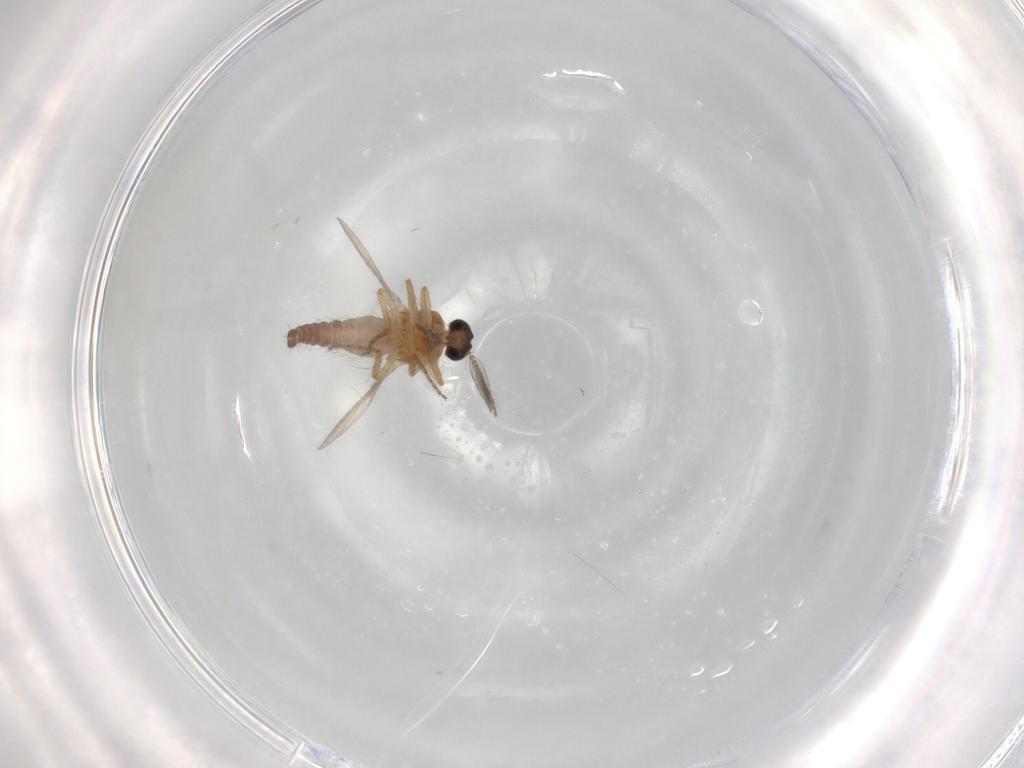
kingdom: Animalia
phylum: Arthropoda
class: Insecta
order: Diptera
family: Ceratopogonidae
